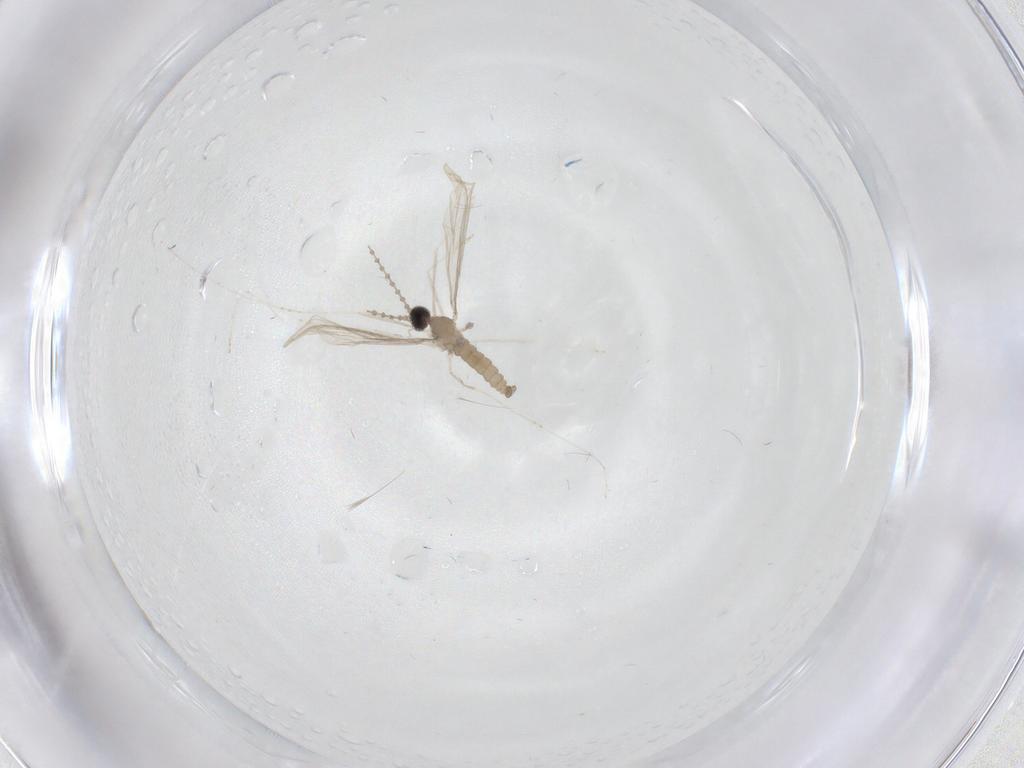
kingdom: Animalia
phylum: Arthropoda
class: Insecta
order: Diptera
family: Cecidomyiidae
